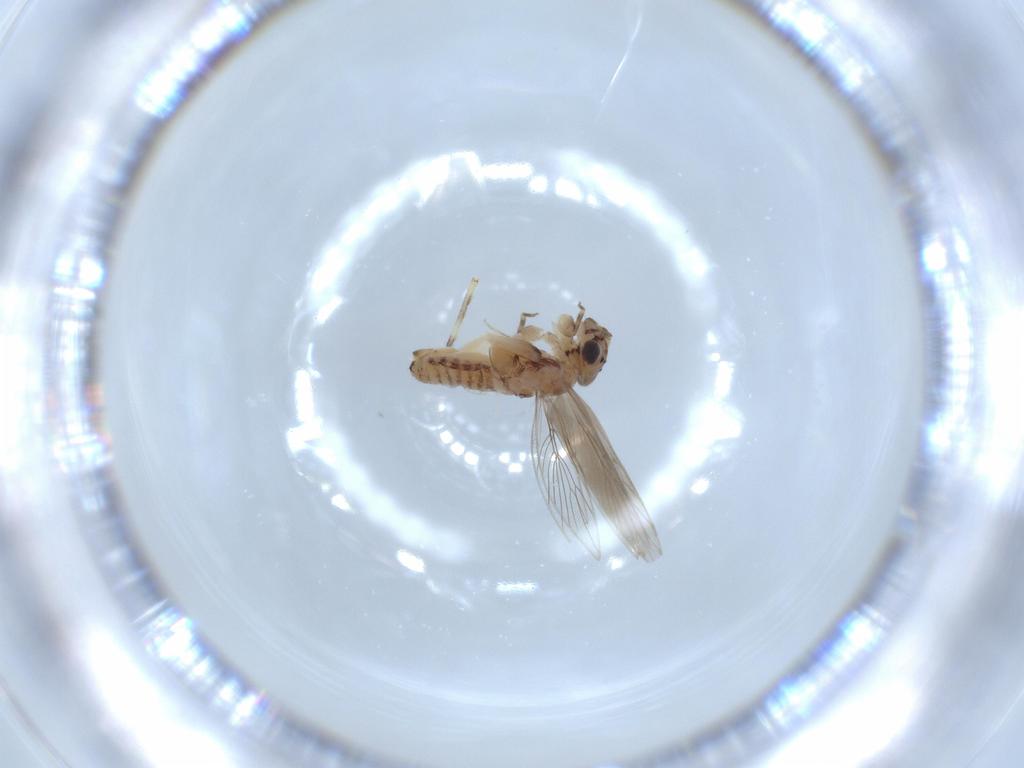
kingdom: Animalia
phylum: Arthropoda
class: Insecta
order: Psocodea
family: Lepidopsocidae
